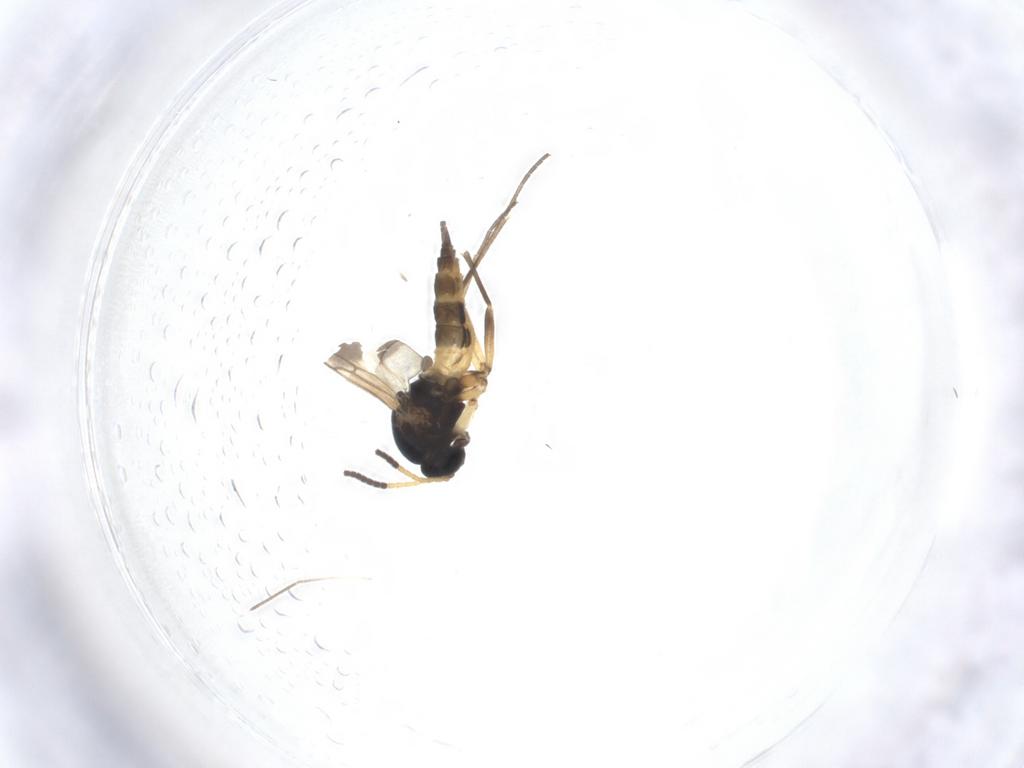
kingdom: Animalia
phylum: Arthropoda
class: Insecta
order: Diptera
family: Sciaridae
